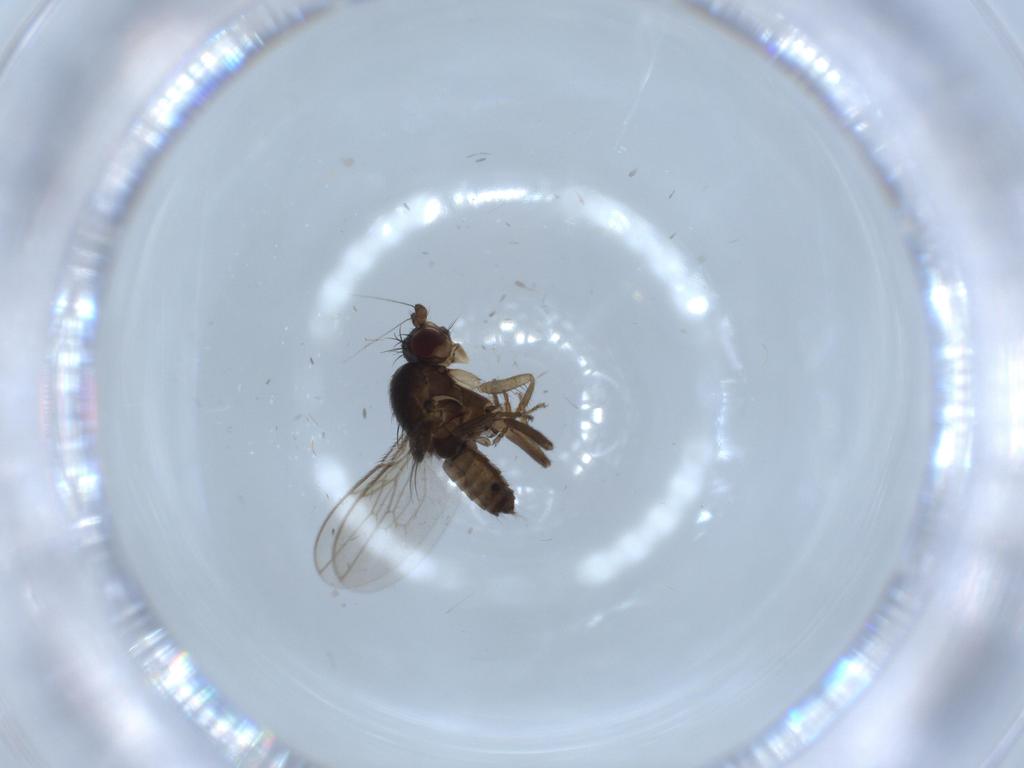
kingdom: Animalia
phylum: Arthropoda
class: Insecta
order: Diptera
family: Sphaeroceridae
